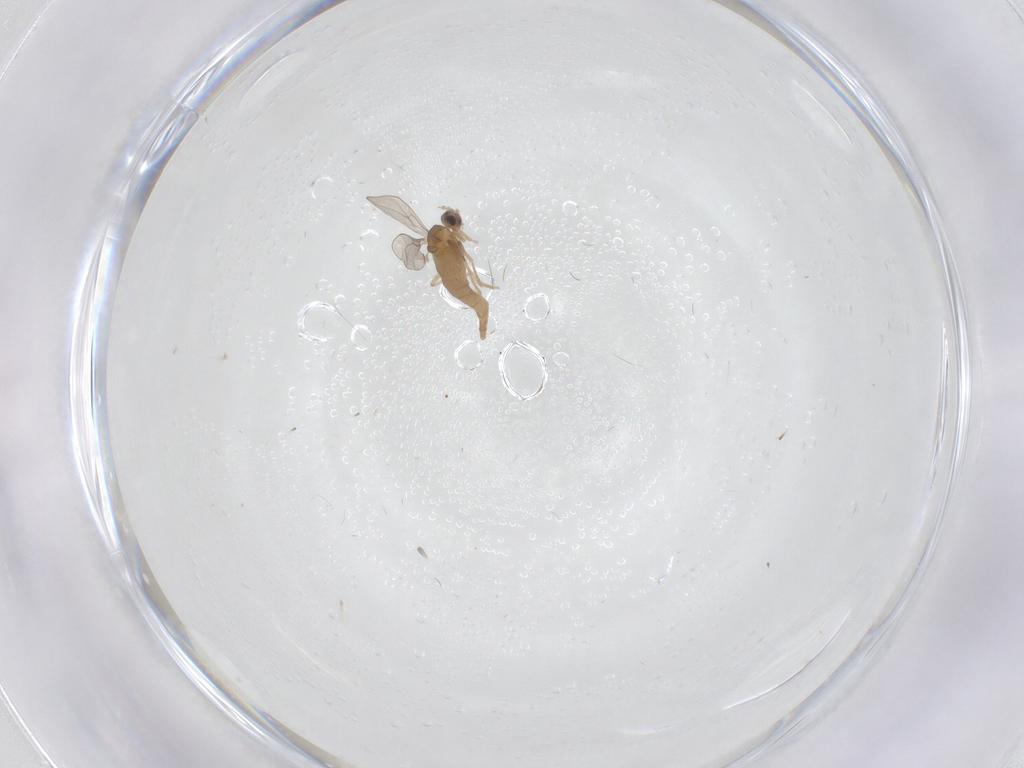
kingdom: Animalia
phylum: Arthropoda
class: Insecta
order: Diptera
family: Cecidomyiidae
